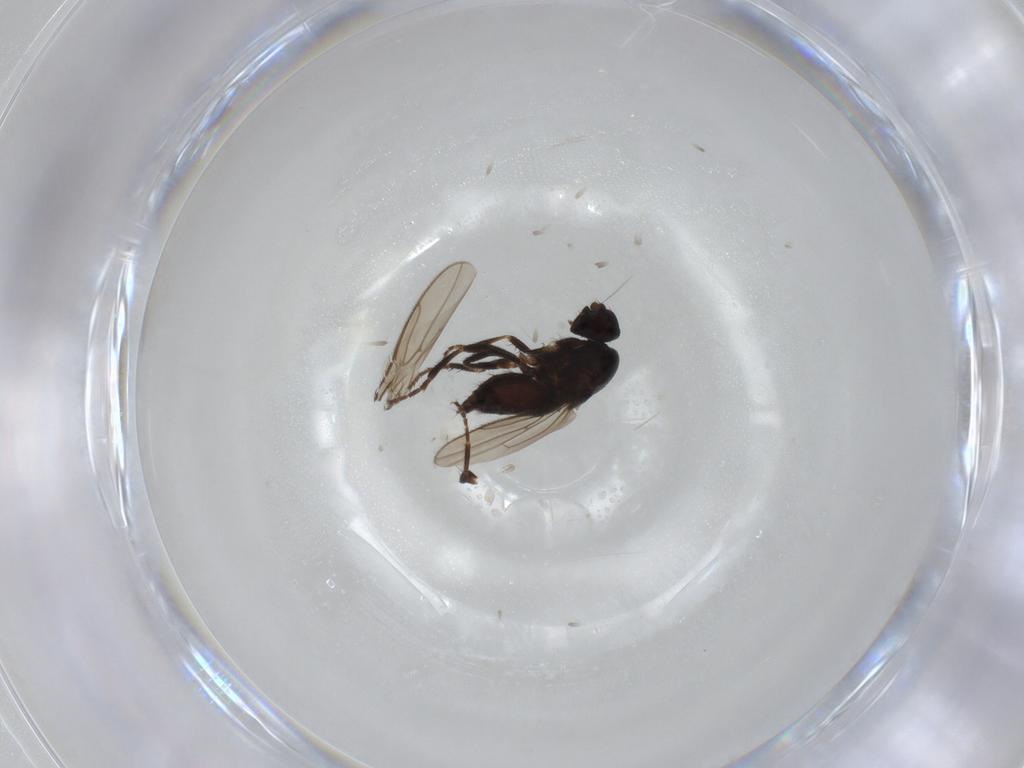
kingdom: Animalia
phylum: Arthropoda
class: Insecta
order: Diptera
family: Sphaeroceridae
